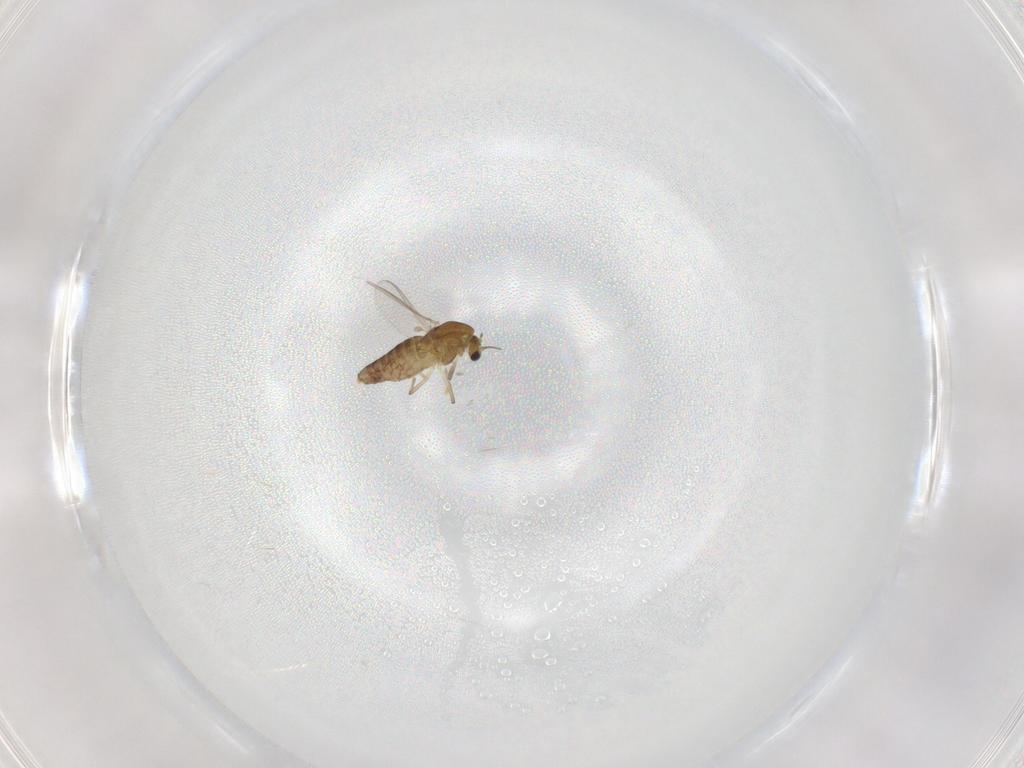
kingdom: Animalia
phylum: Arthropoda
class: Insecta
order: Diptera
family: Chironomidae
